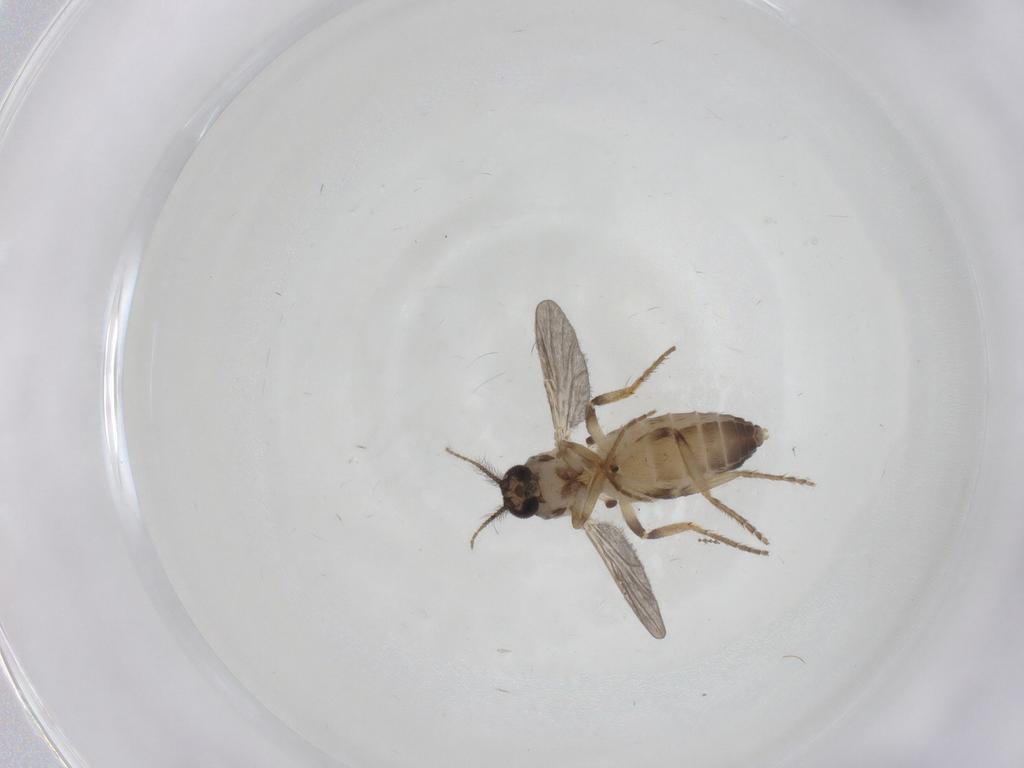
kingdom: Animalia
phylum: Arthropoda
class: Insecta
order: Diptera
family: Ceratopogonidae
